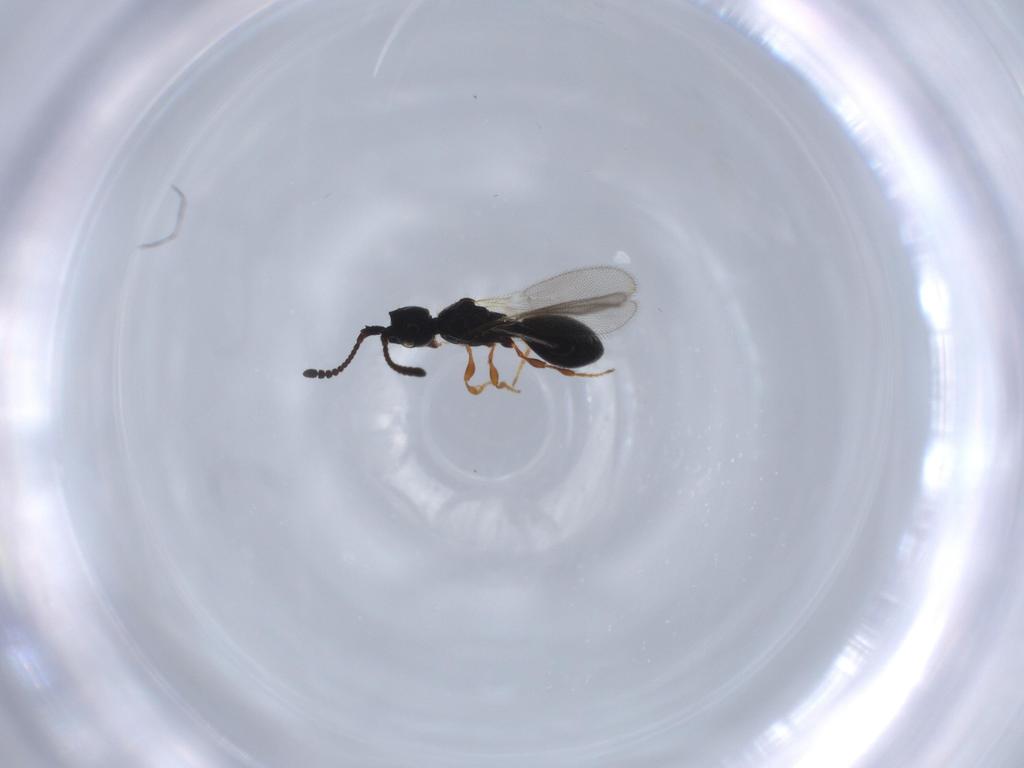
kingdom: Animalia
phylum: Arthropoda
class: Insecta
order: Hymenoptera
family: Diapriidae
